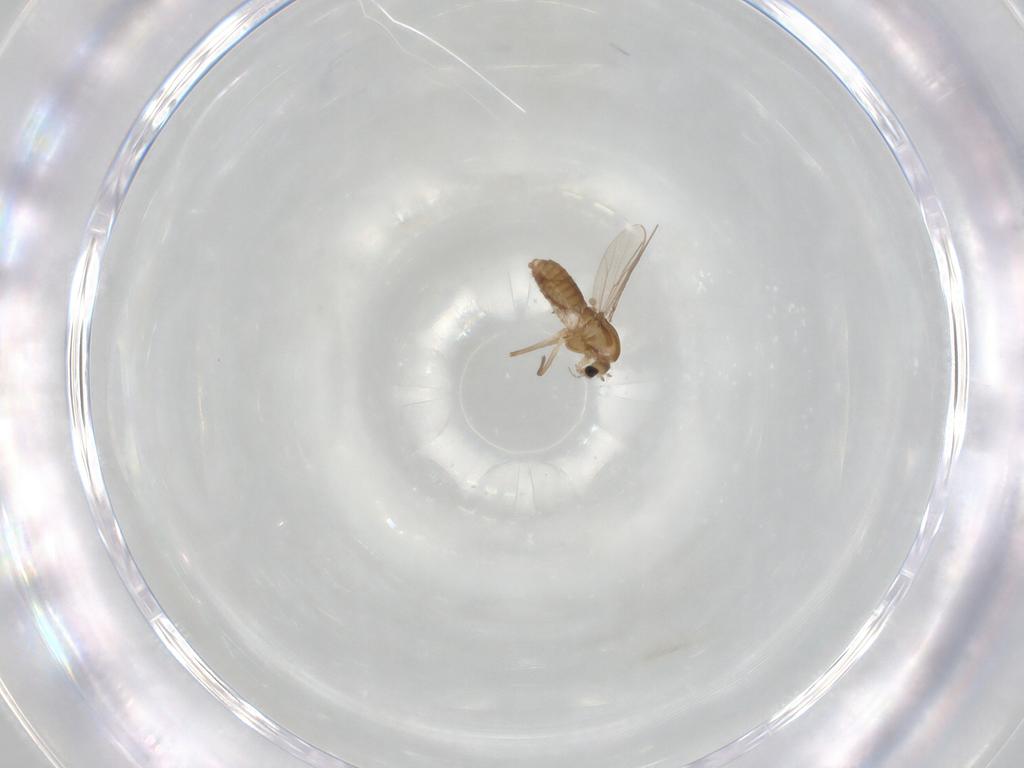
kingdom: Animalia
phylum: Arthropoda
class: Insecta
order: Diptera
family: Chironomidae
